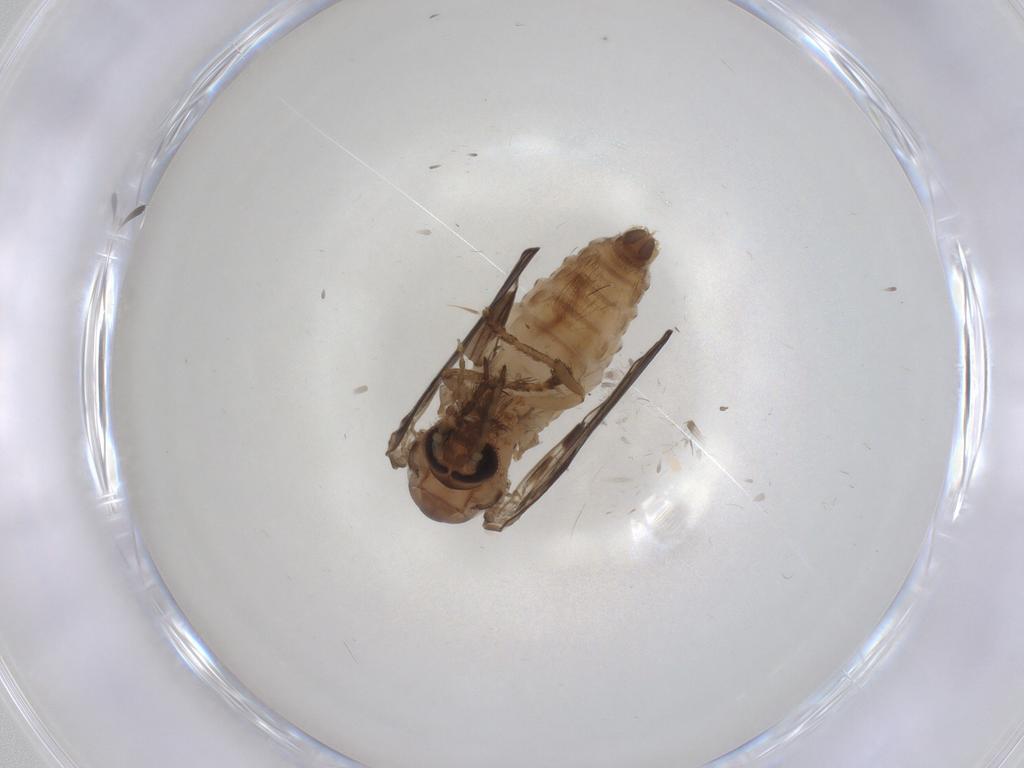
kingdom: Animalia
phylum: Arthropoda
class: Insecta
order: Diptera
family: Psychodidae
